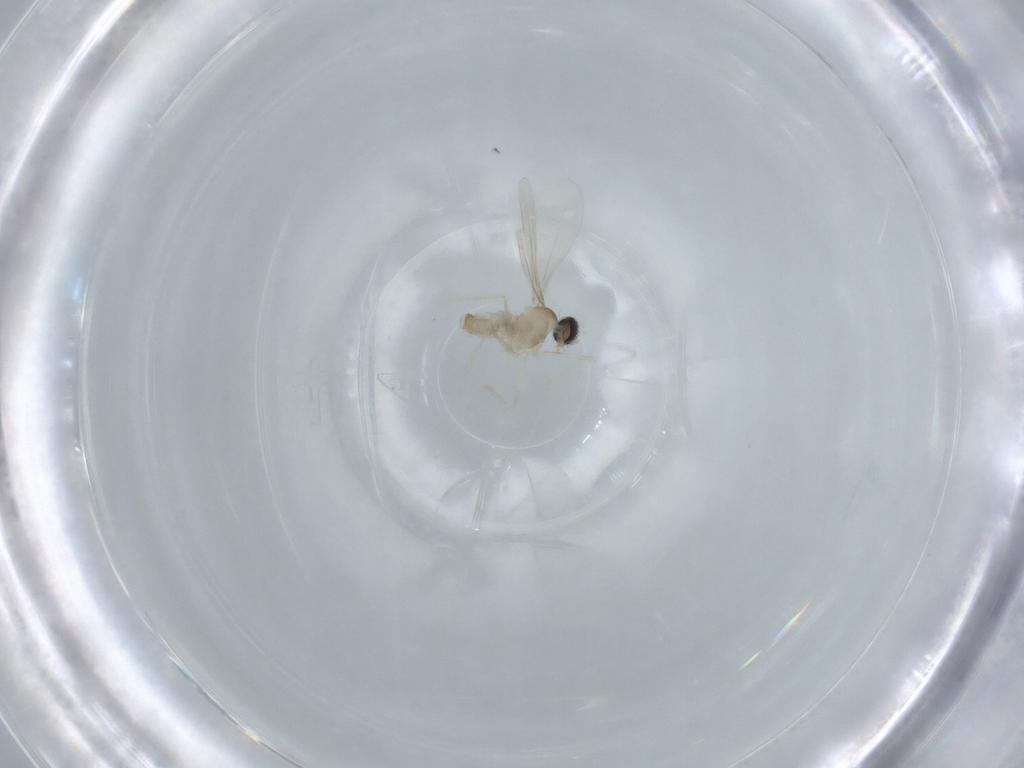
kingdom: Animalia
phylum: Arthropoda
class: Insecta
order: Diptera
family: Cecidomyiidae
